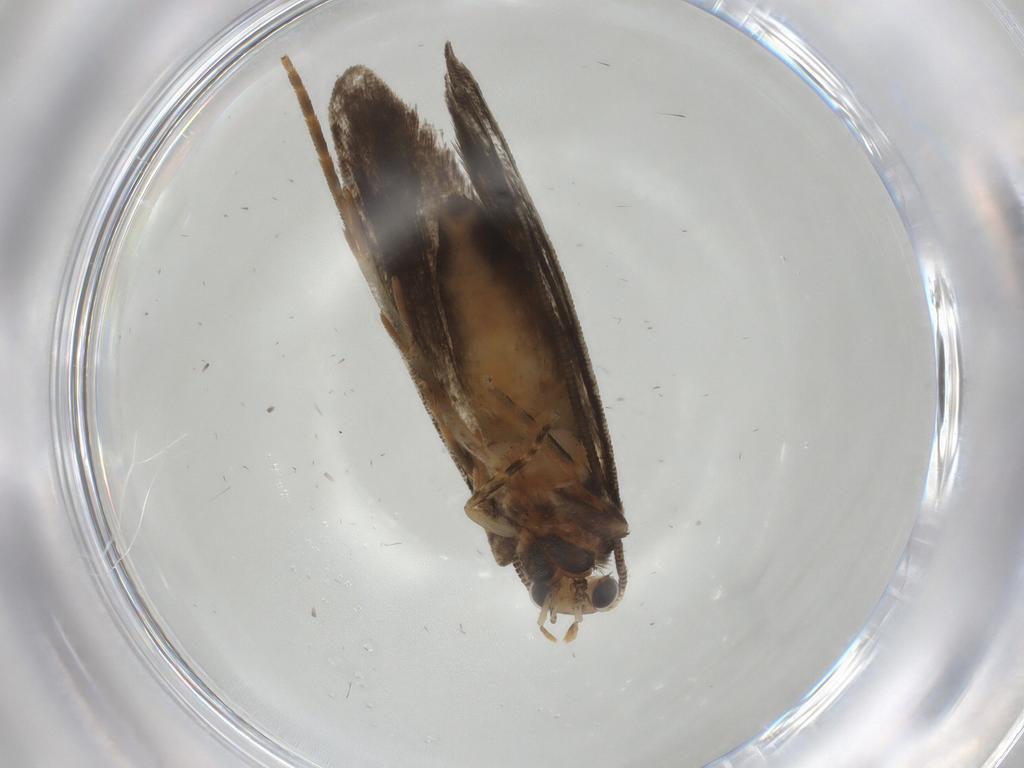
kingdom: Animalia
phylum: Arthropoda
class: Insecta
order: Lepidoptera
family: Tineidae
